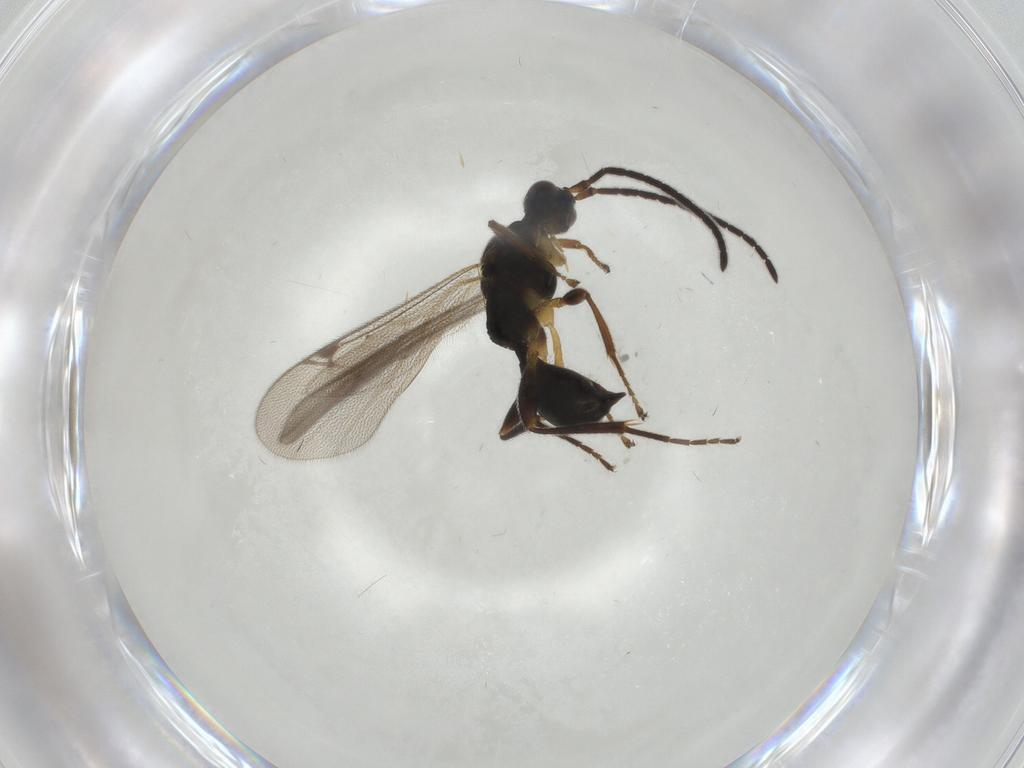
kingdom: Animalia
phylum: Arthropoda
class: Insecta
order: Hymenoptera
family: Proctotrupidae
